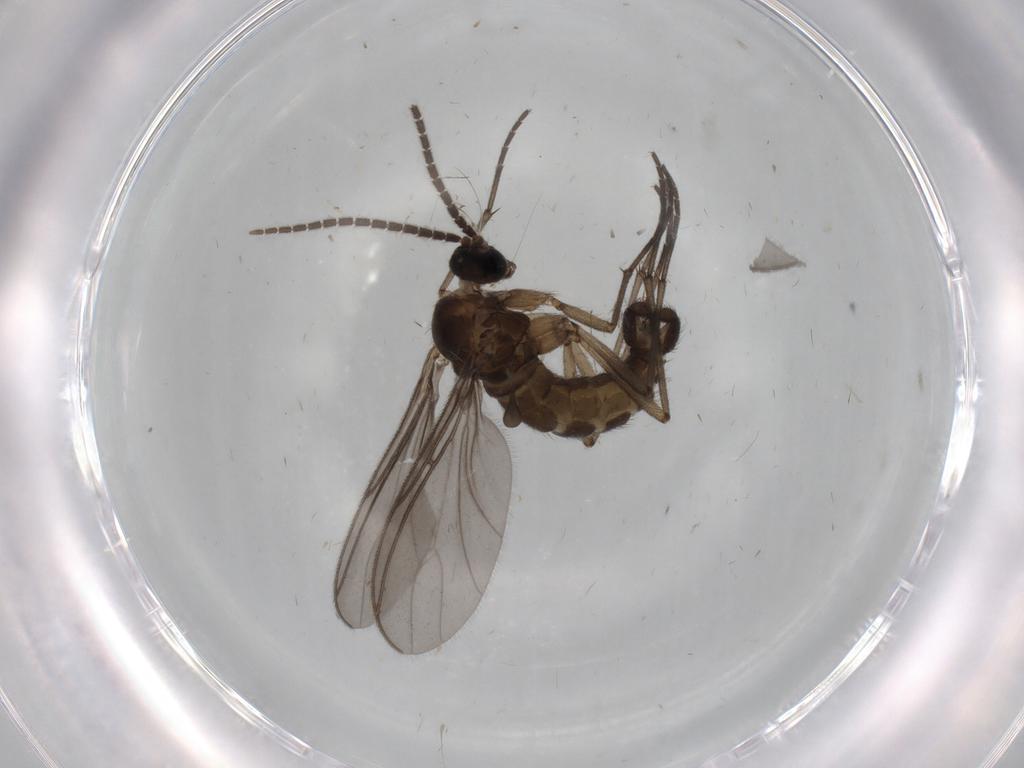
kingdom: Animalia
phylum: Arthropoda
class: Insecta
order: Diptera
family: Sciaridae
